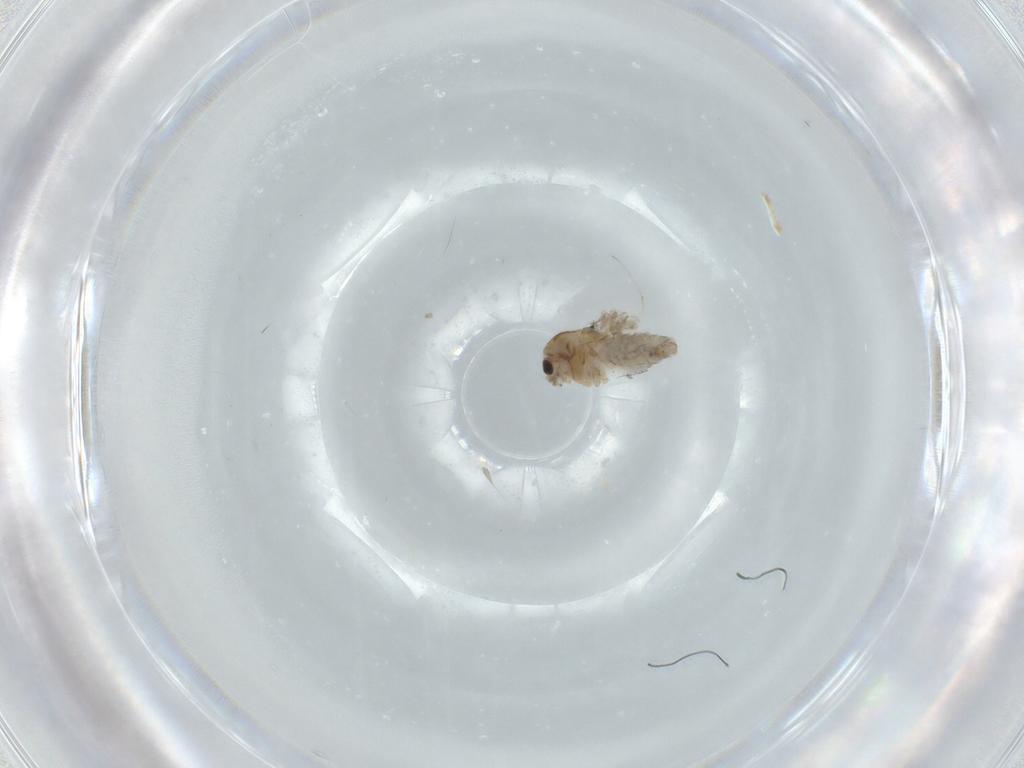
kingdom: Animalia
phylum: Arthropoda
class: Insecta
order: Diptera
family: Chironomidae
